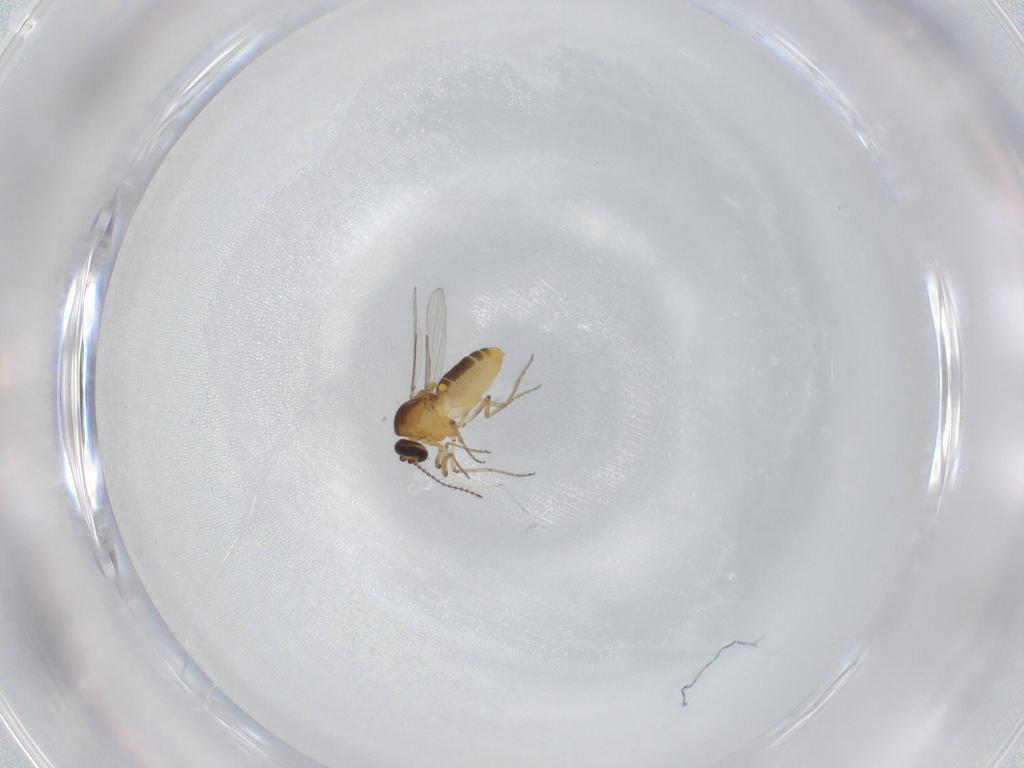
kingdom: Animalia
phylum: Arthropoda
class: Insecta
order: Diptera
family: Ceratopogonidae
